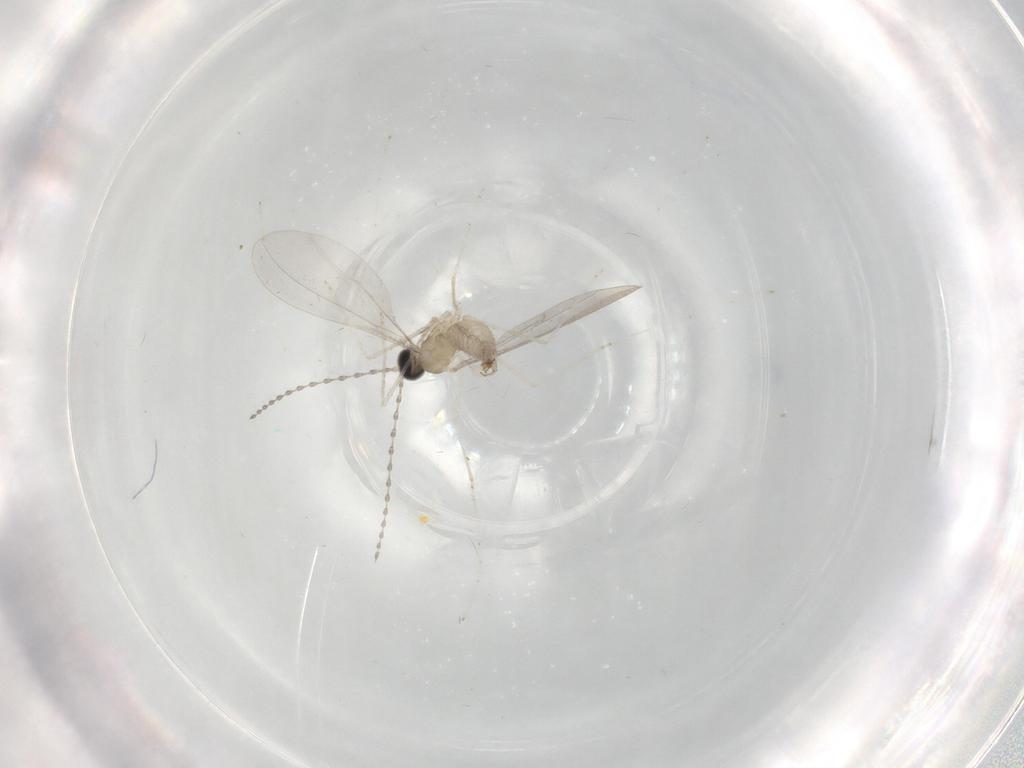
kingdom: Animalia
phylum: Arthropoda
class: Insecta
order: Diptera
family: Cecidomyiidae
